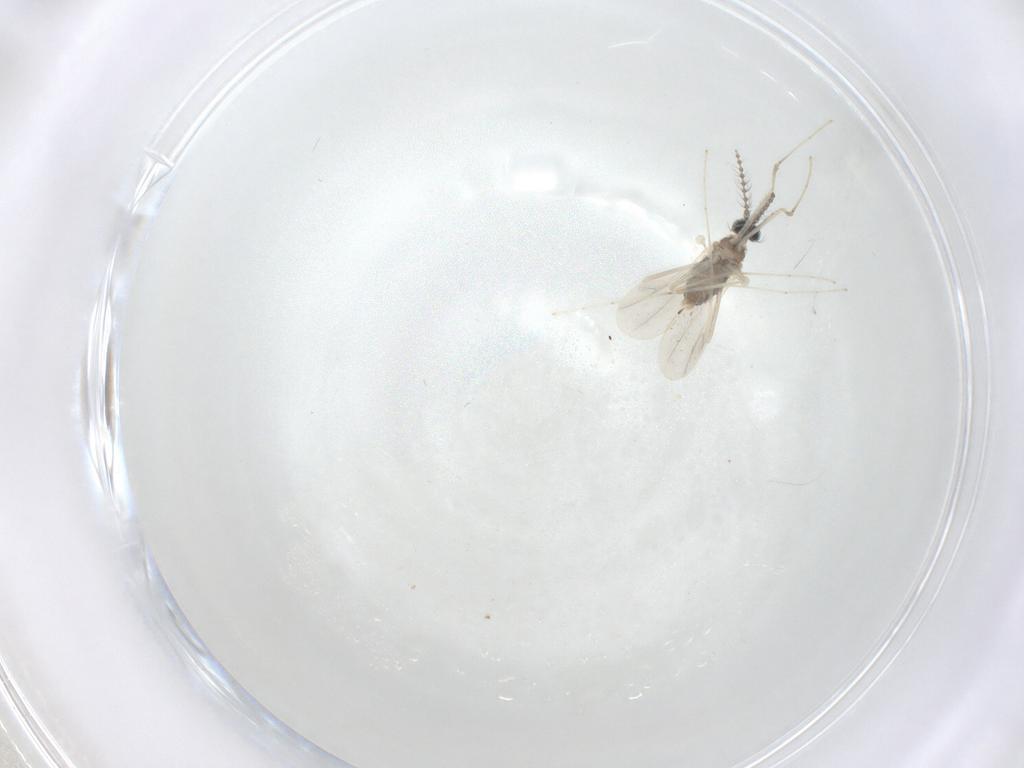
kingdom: Animalia
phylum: Arthropoda
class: Insecta
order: Diptera
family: Cecidomyiidae
